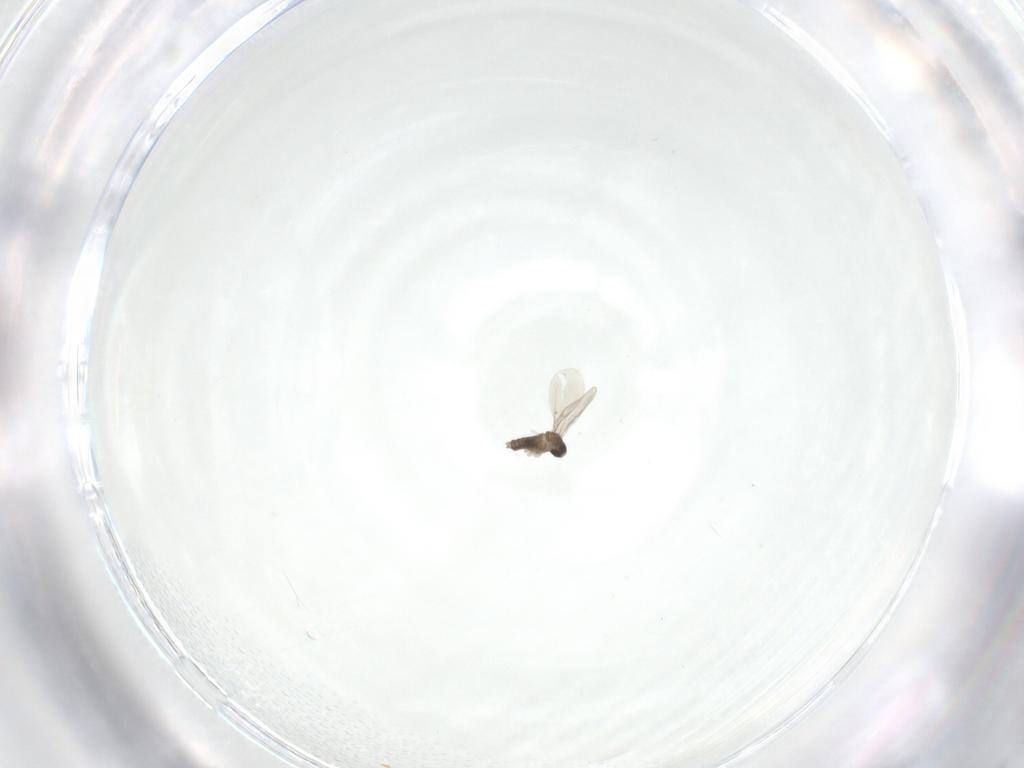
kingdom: Animalia
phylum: Arthropoda
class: Insecta
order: Diptera
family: Cecidomyiidae
